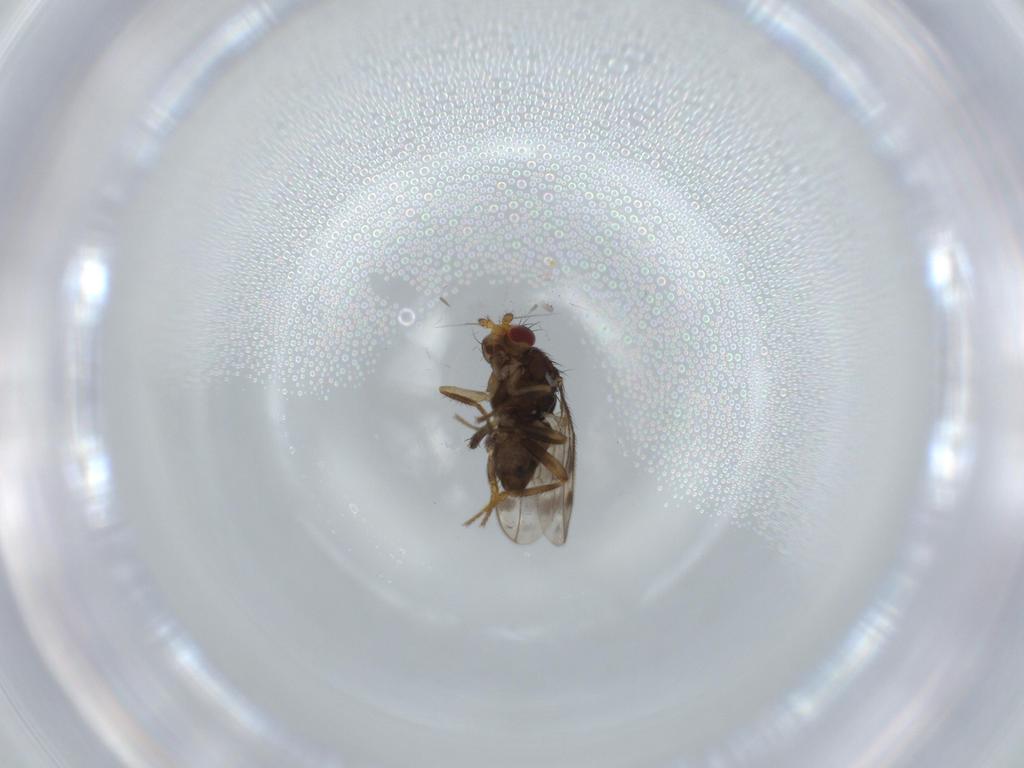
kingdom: Animalia
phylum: Arthropoda
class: Insecta
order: Diptera
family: Sphaeroceridae
